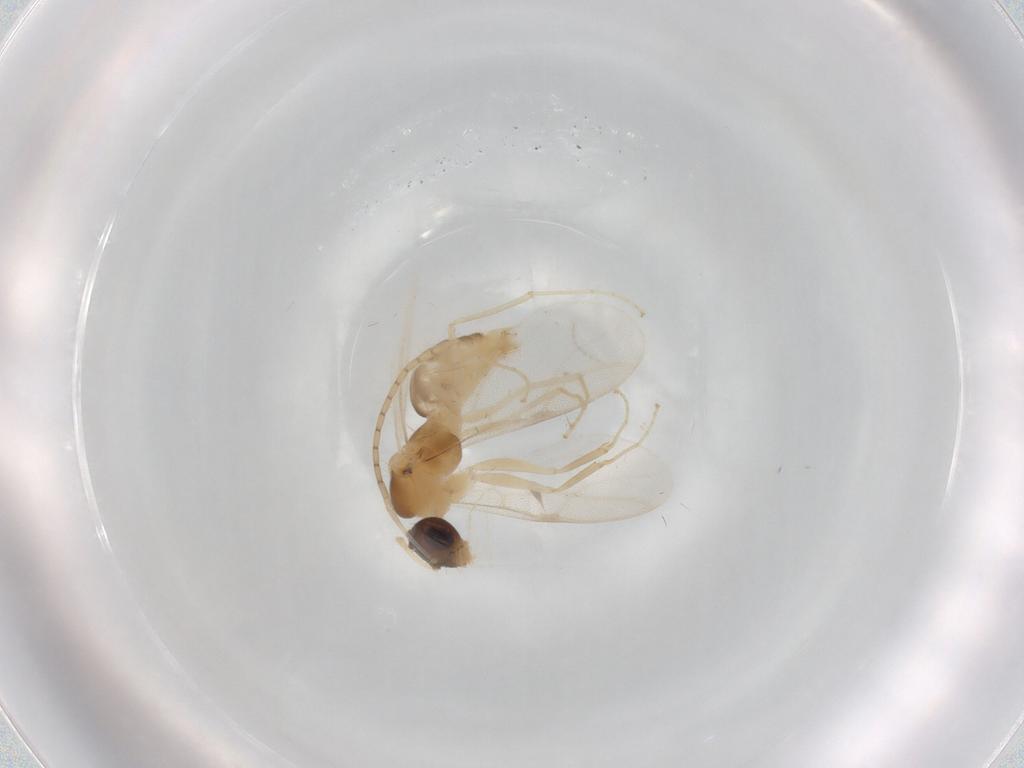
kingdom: Animalia
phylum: Arthropoda
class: Insecta
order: Hymenoptera
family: Formicidae
